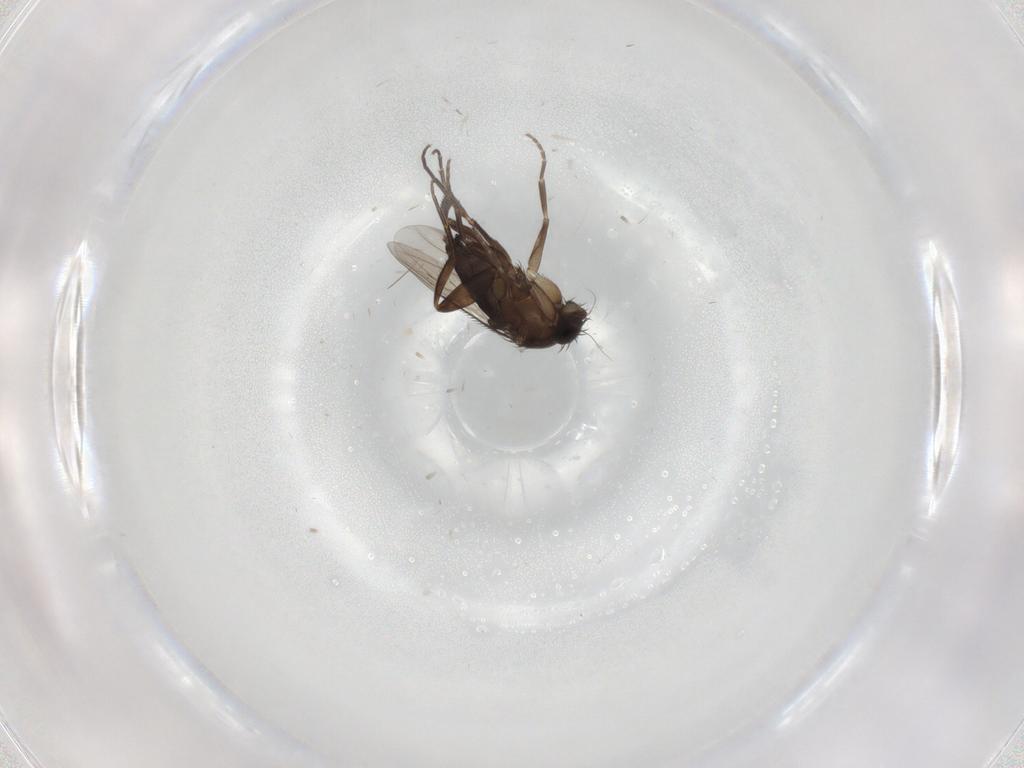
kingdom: Animalia
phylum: Arthropoda
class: Insecta
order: Diptera
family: Phoridae
